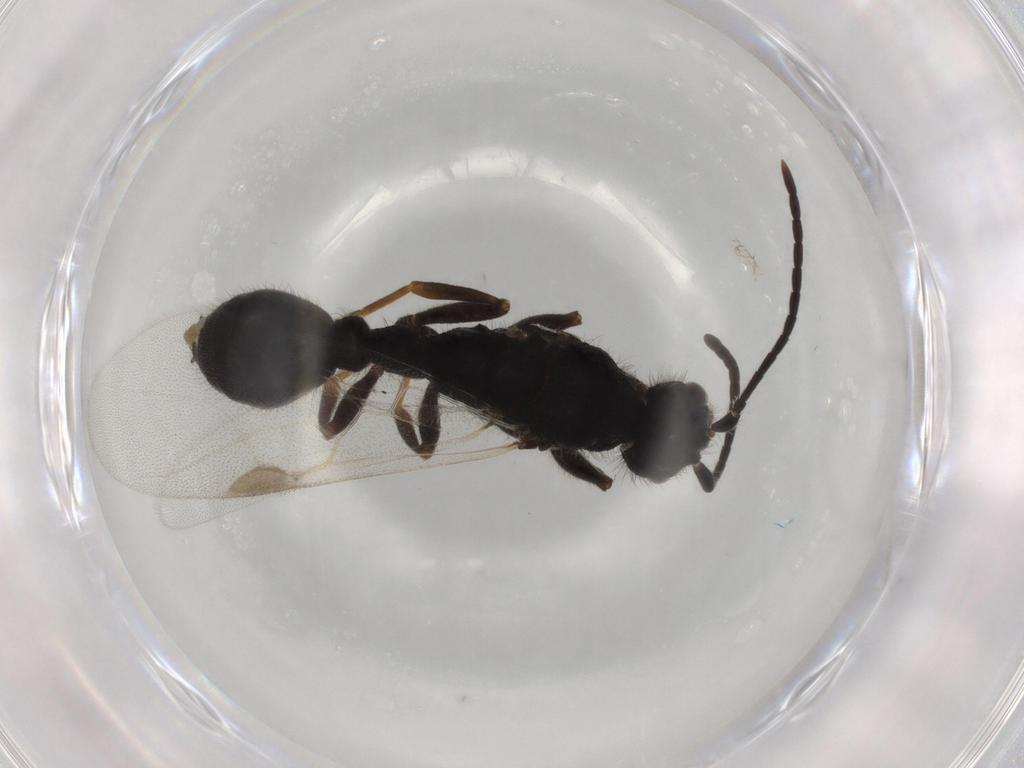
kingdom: Animalia
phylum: Arthropoda
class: Insecta
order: Hymenoptera
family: Formicidae
